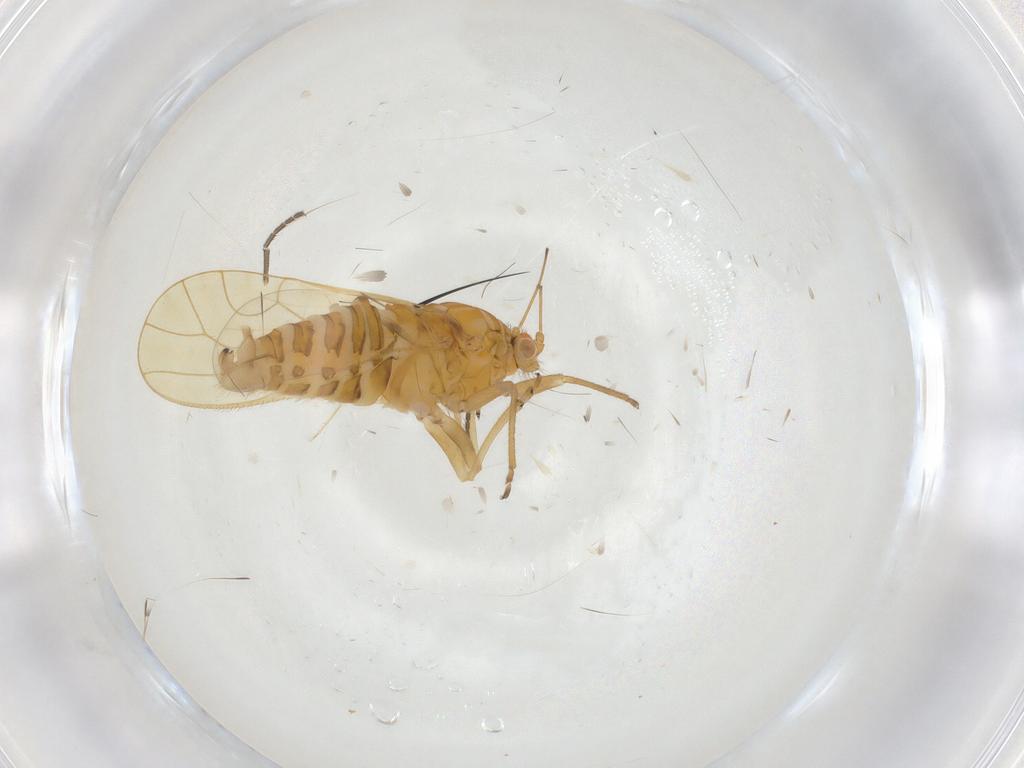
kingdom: Animalia
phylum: Arthropoda
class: Insecta
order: Hemiptera
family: Psyllidae
